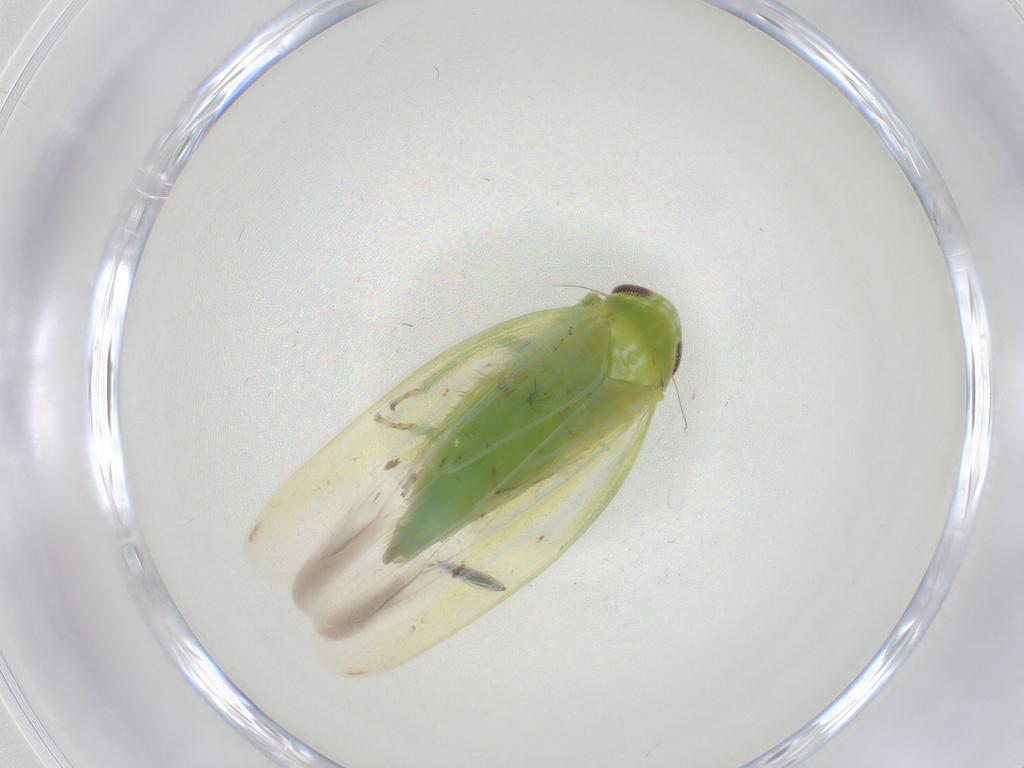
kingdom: Animalia
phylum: Arthropoda
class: Insecta
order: Hemiptera
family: Cicadellidae
